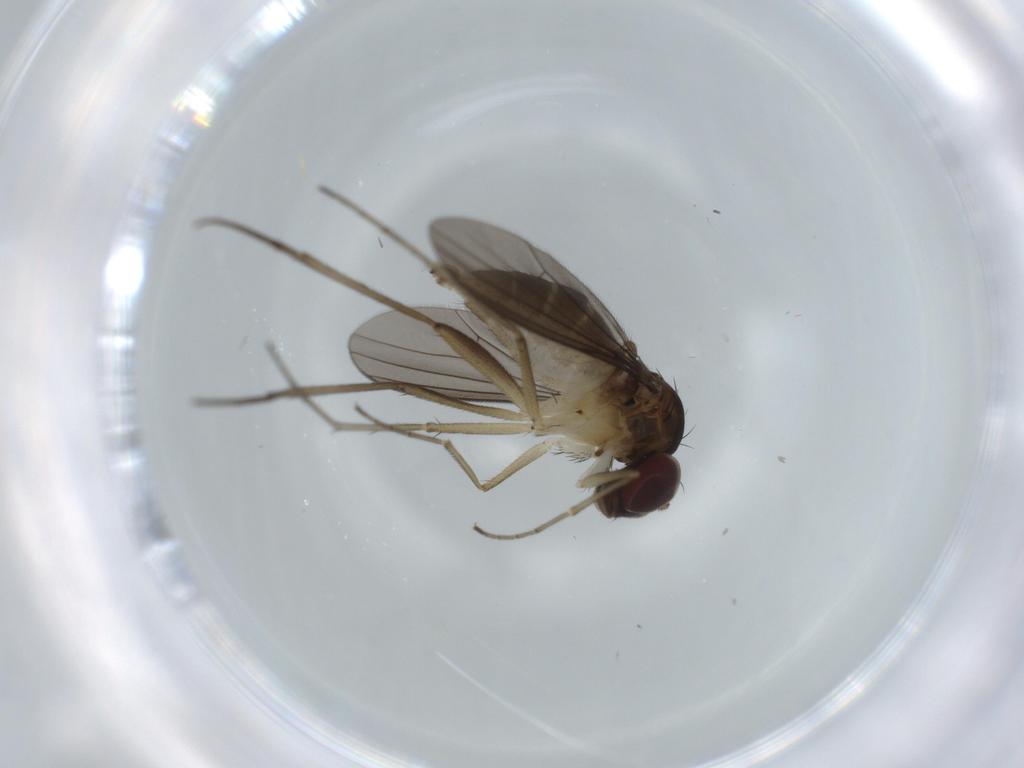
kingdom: Animalia
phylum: Arthropoda
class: Insecta
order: Diptera
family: Dolichopodidae
